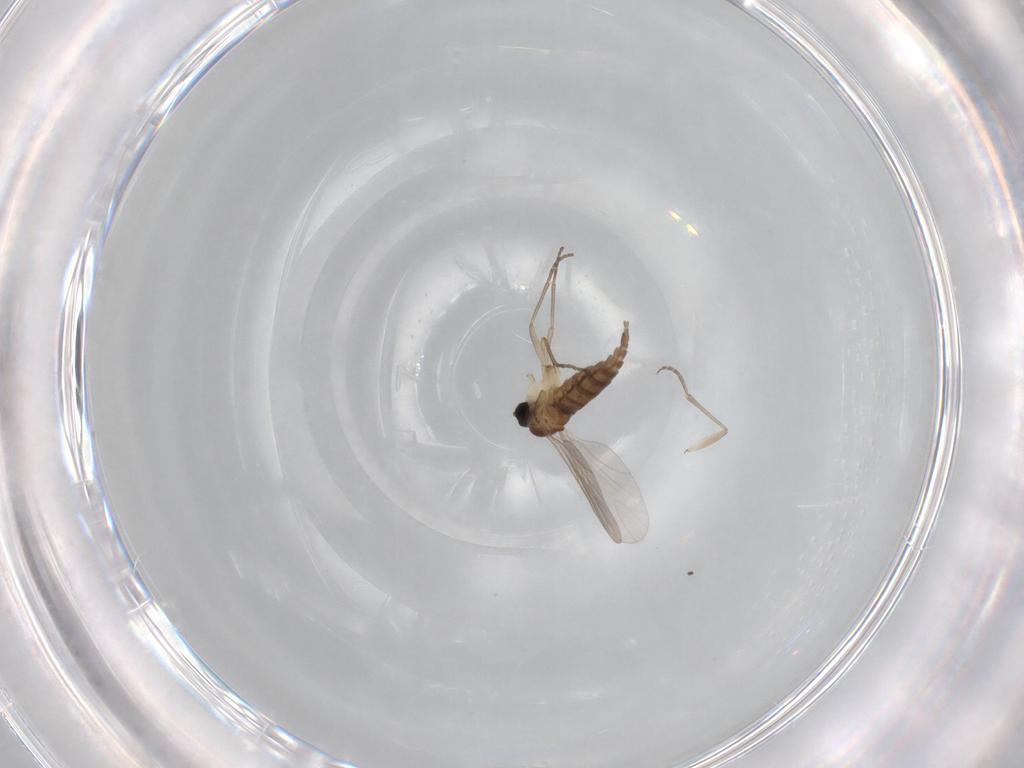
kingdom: Animalia
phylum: Arthropoda
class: Insecta
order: Diptera
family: Sciaridae
